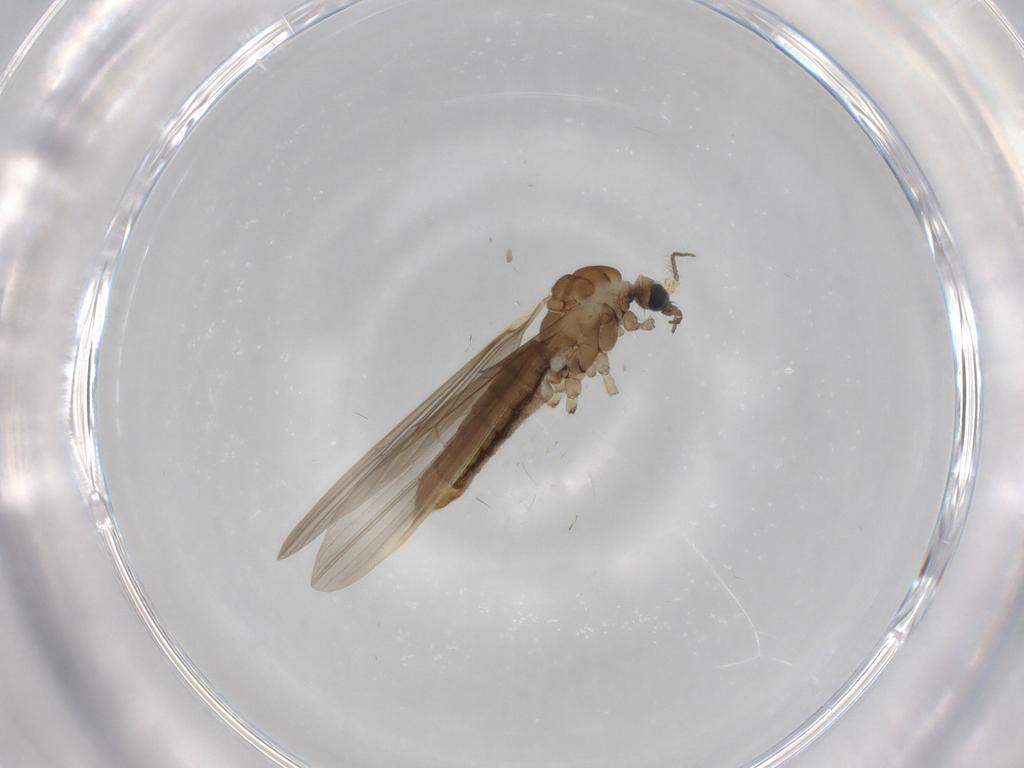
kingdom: Animalia
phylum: Arthropoda
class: Insecta
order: Diptera
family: Limoniidae
